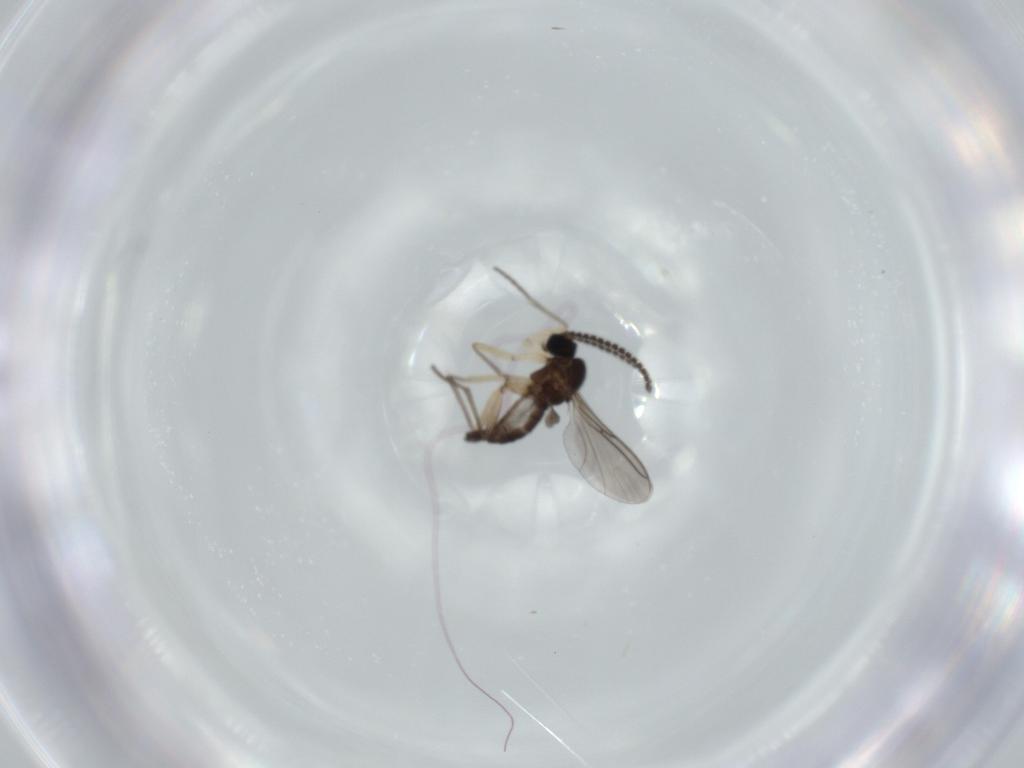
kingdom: Animalia
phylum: Arthropoda
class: Insecta
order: Diptera
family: Sciaridae
